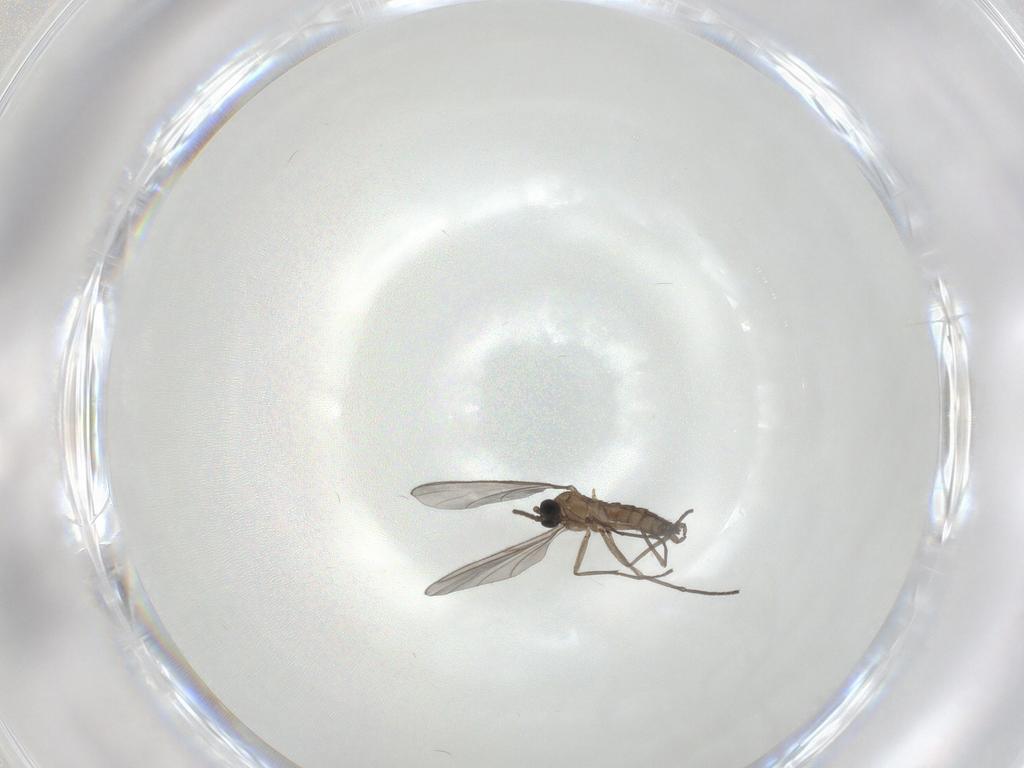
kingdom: Animalia
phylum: Arthropoda
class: Insecta
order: Diptera
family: Sciaridae
